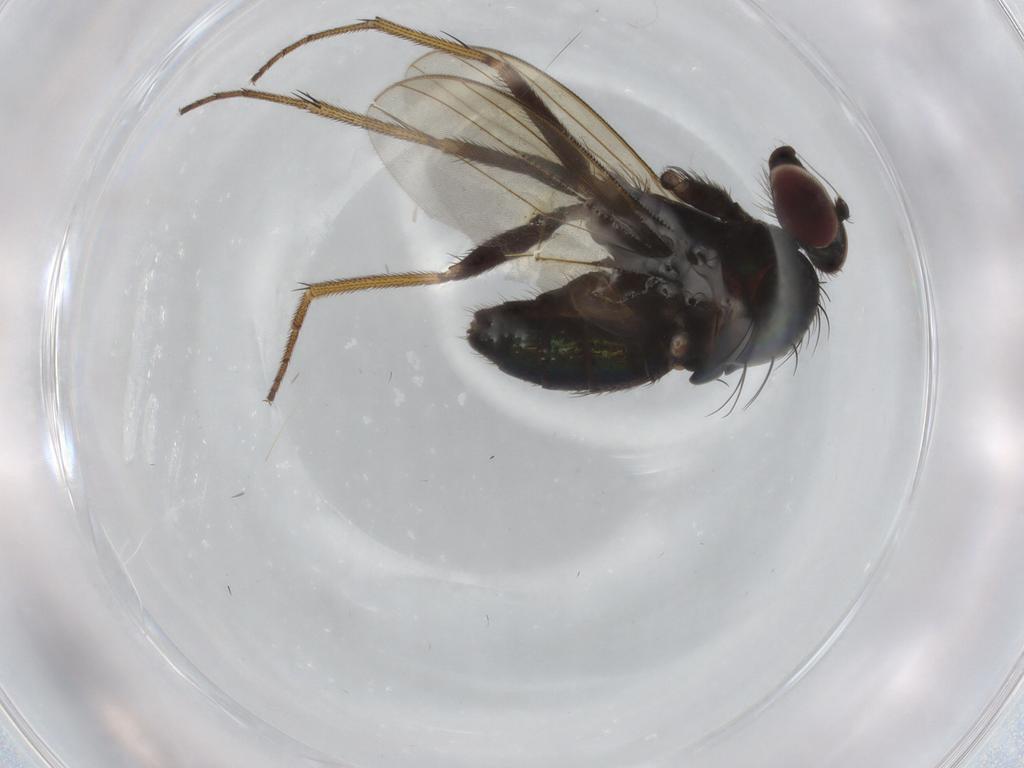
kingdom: Animalia
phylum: Arthropoda
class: Insecta
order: Diptera
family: Dolichopodidae
